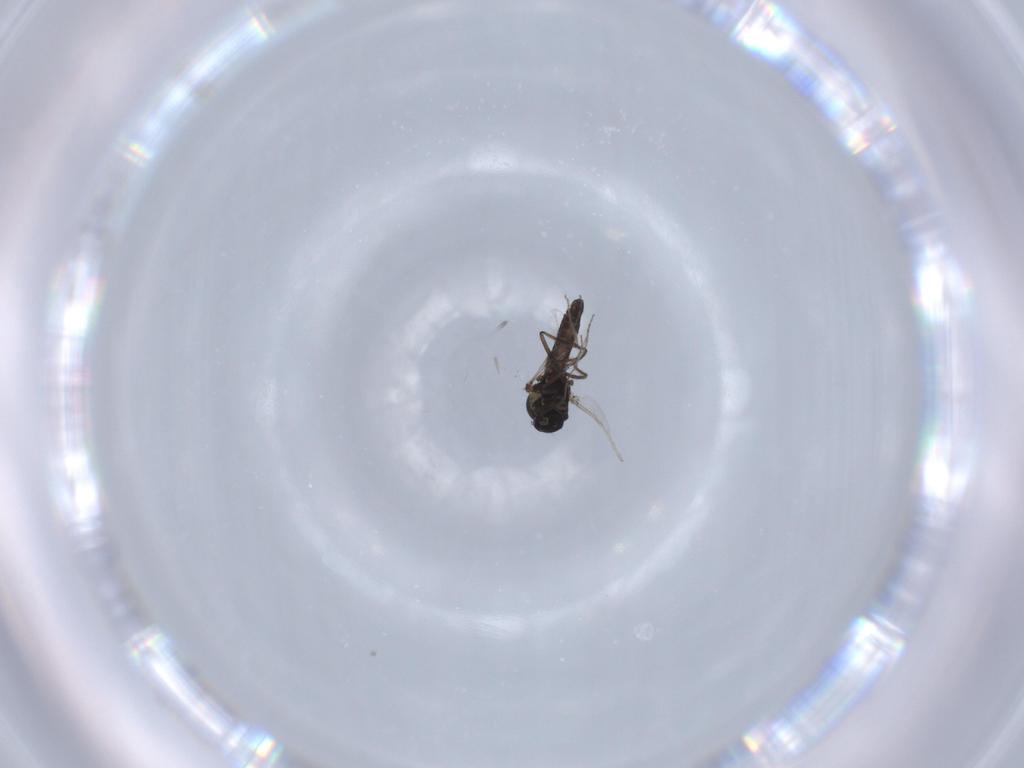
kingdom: Animalia
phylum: Arthropoda
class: Insecta
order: Diptera
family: Ceratopogonidae
